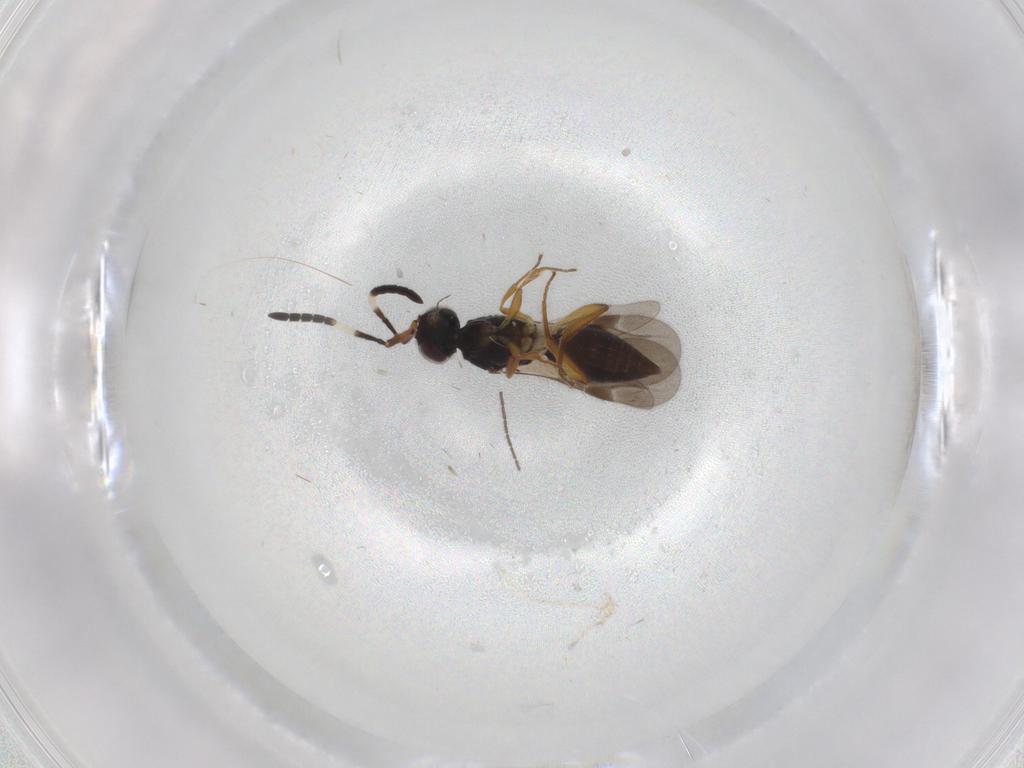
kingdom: Animalia
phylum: Arthropoda
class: Insecta
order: Hymenoptera
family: Megaspilidae
